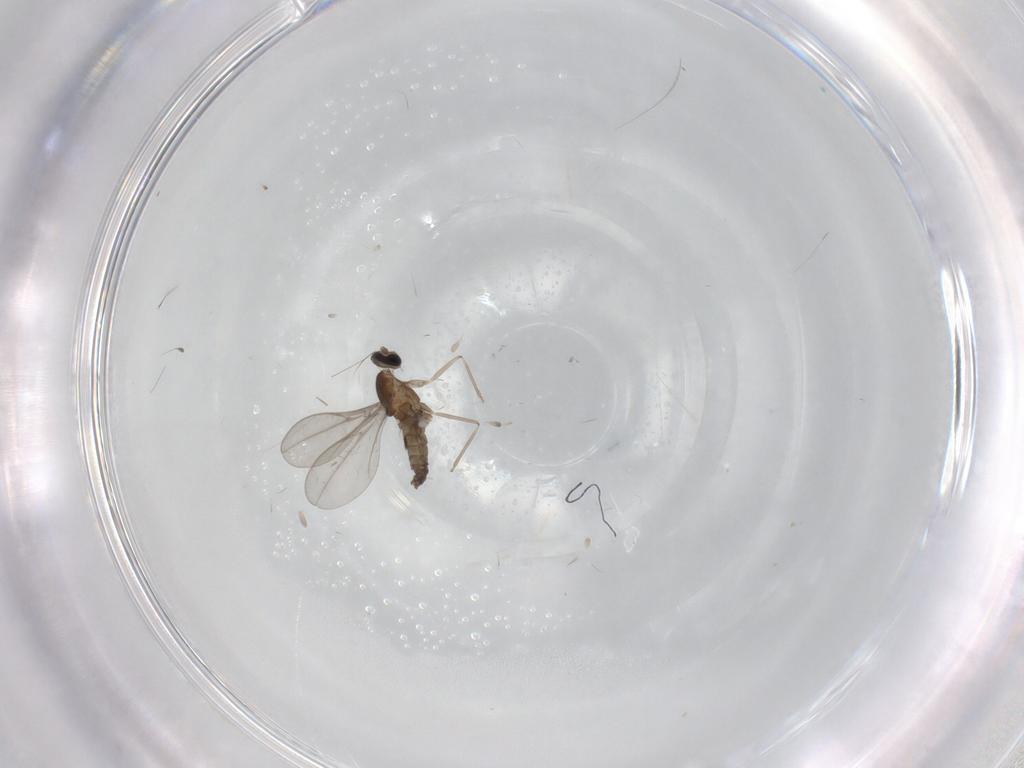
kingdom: Animalia
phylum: Arthropoda
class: Insecta
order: Diptera
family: Cecidomyiidae
